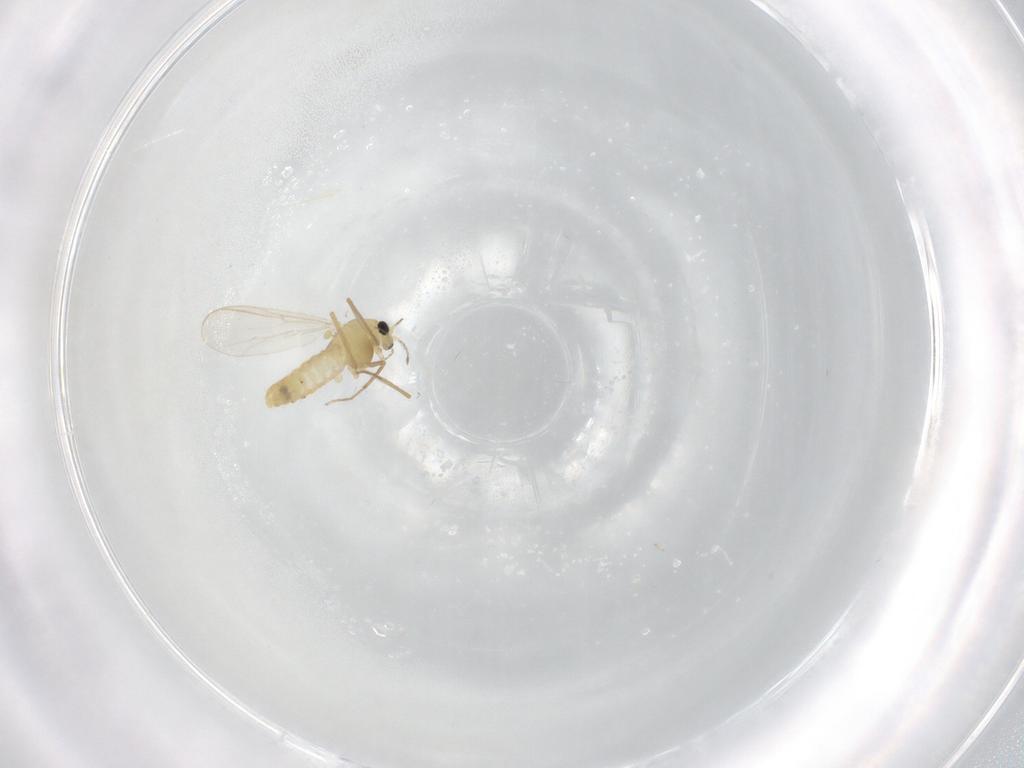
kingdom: Animalia
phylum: Arthropoda
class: Insecta
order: Diptera
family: Chironomidae
